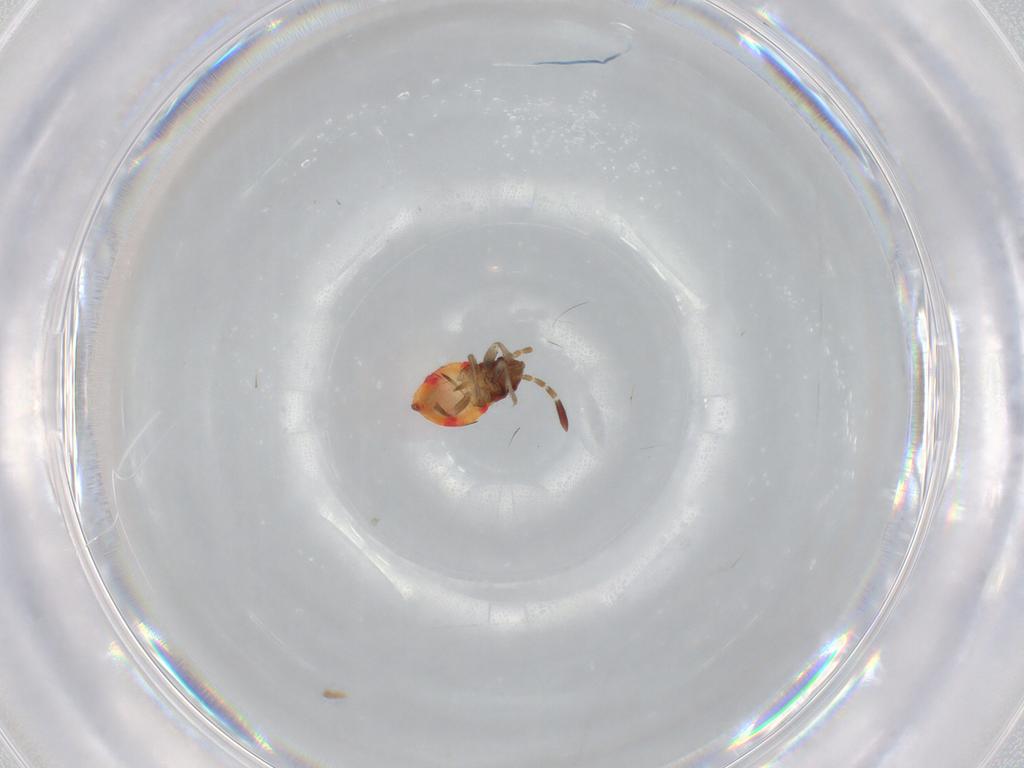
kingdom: Animalia
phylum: Arthropoda
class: Insecta
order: Hemiptera
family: Rhyparochromidae
